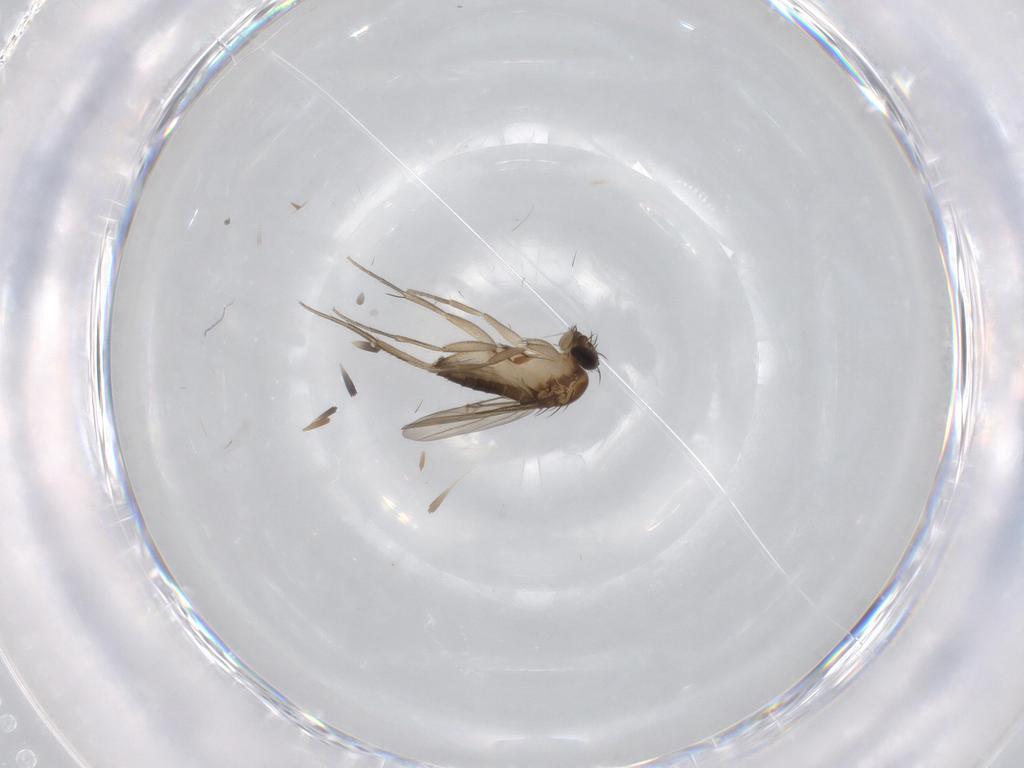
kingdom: Animalia
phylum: Arthropoda
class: Insecta
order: Diptera
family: Phoridae
